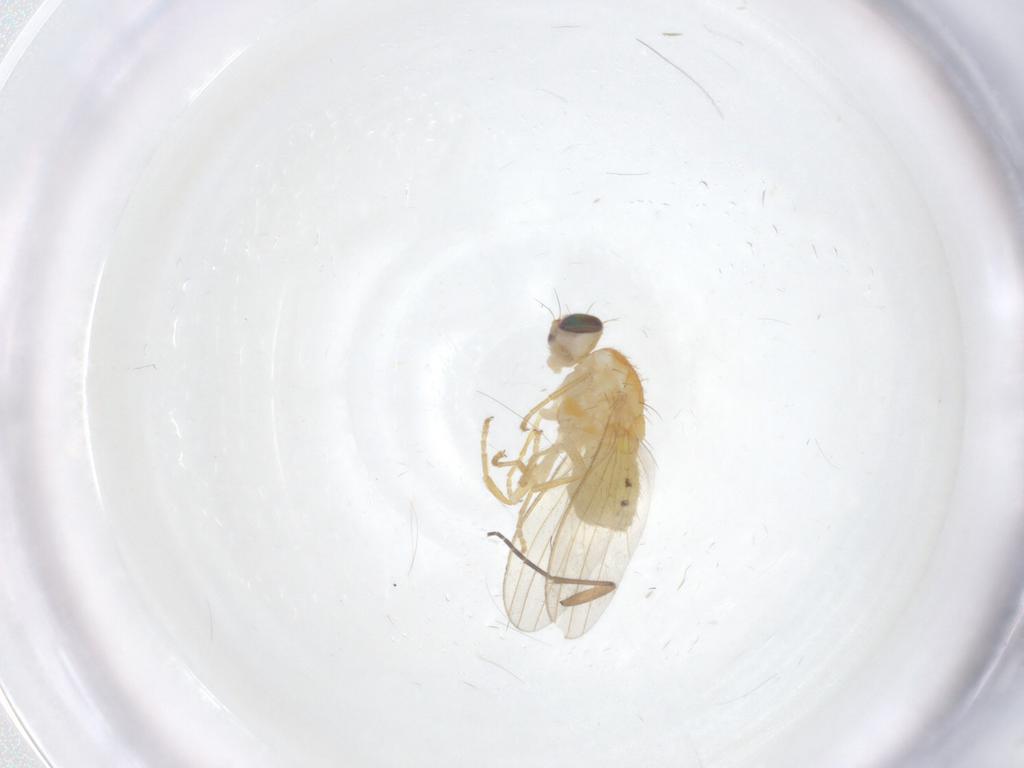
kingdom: Animalia
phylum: Arthropoda
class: Insecta
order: Diptera
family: Chyromyidae
